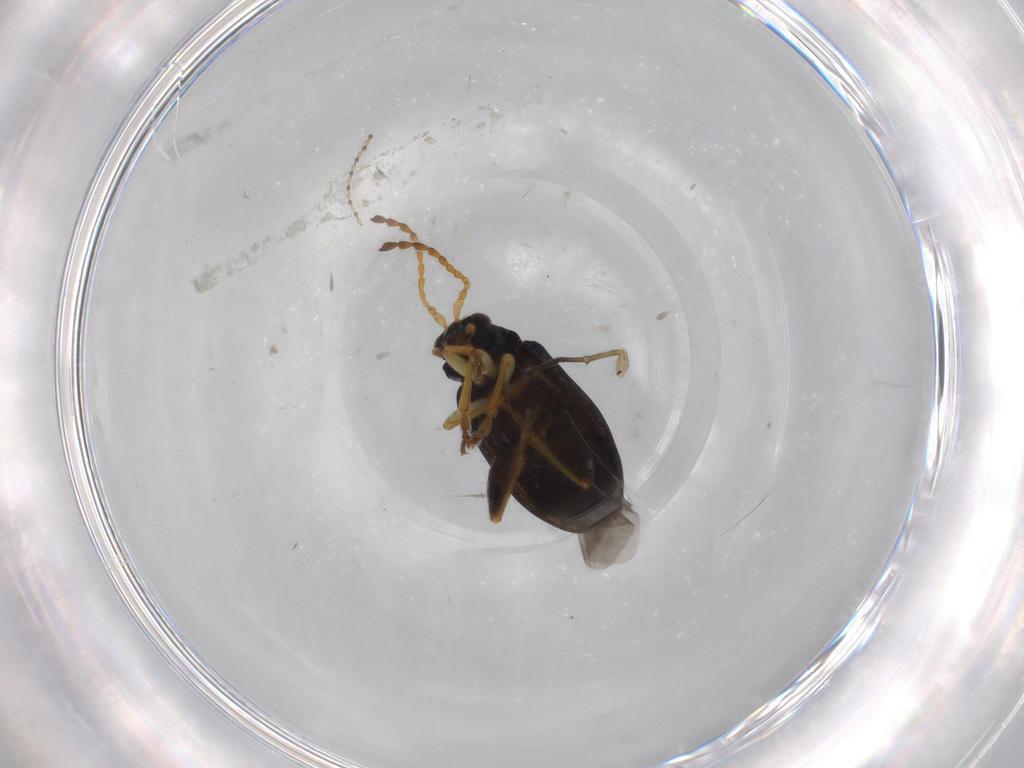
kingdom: Animalia
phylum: Arthropoda
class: Insecta
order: Coleoptera
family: Chrysomelidae
